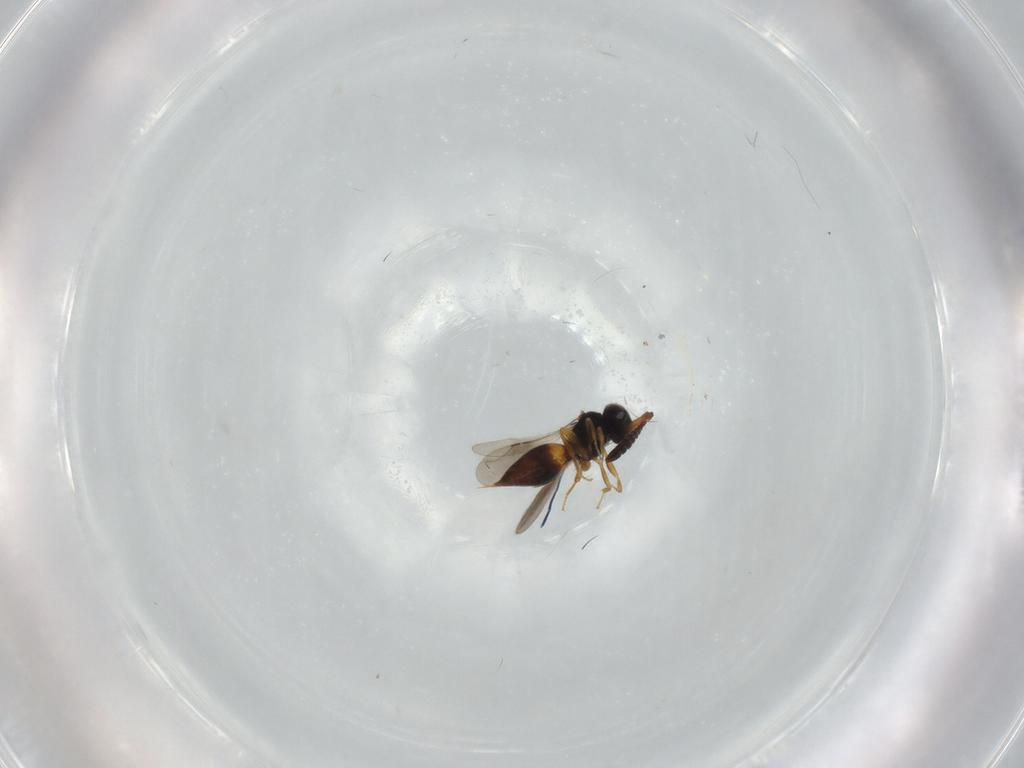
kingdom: Animalia
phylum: Arthropoda
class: Insecta
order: Hymenoptera
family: Ceraphronidae
